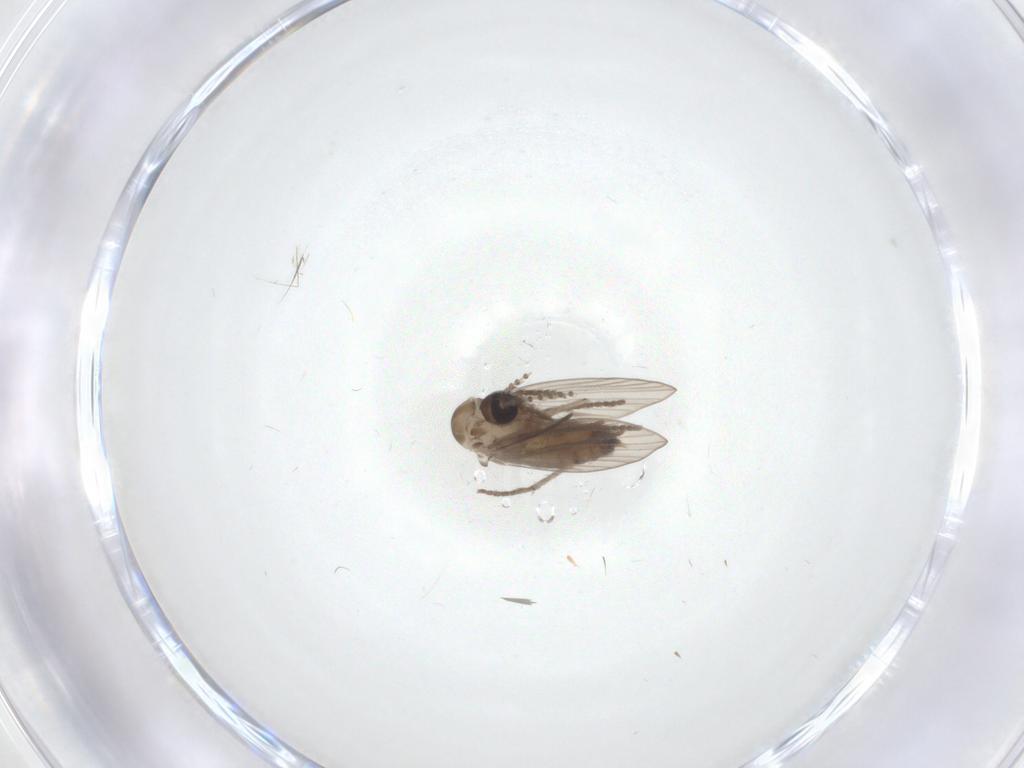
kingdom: Animalia
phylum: Arthropoda
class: Insecta
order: Diptera
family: Psychodidae
